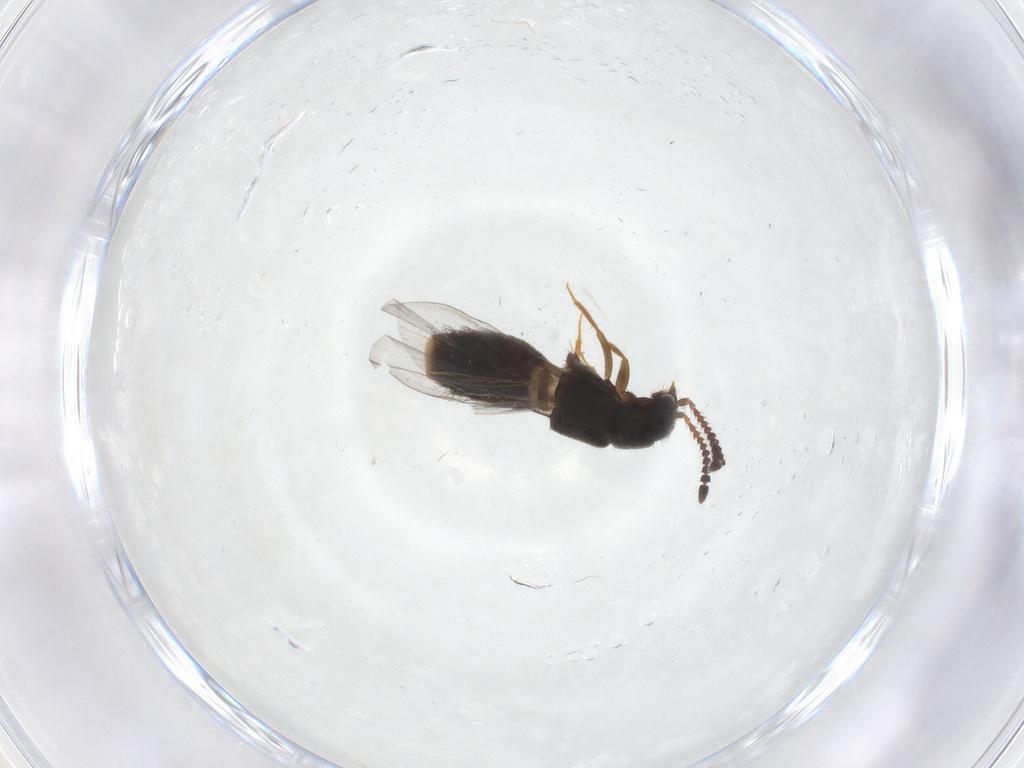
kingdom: Animalia
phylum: Arthropoda
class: Insecta
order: Coleoptera
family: Staphylinidae
